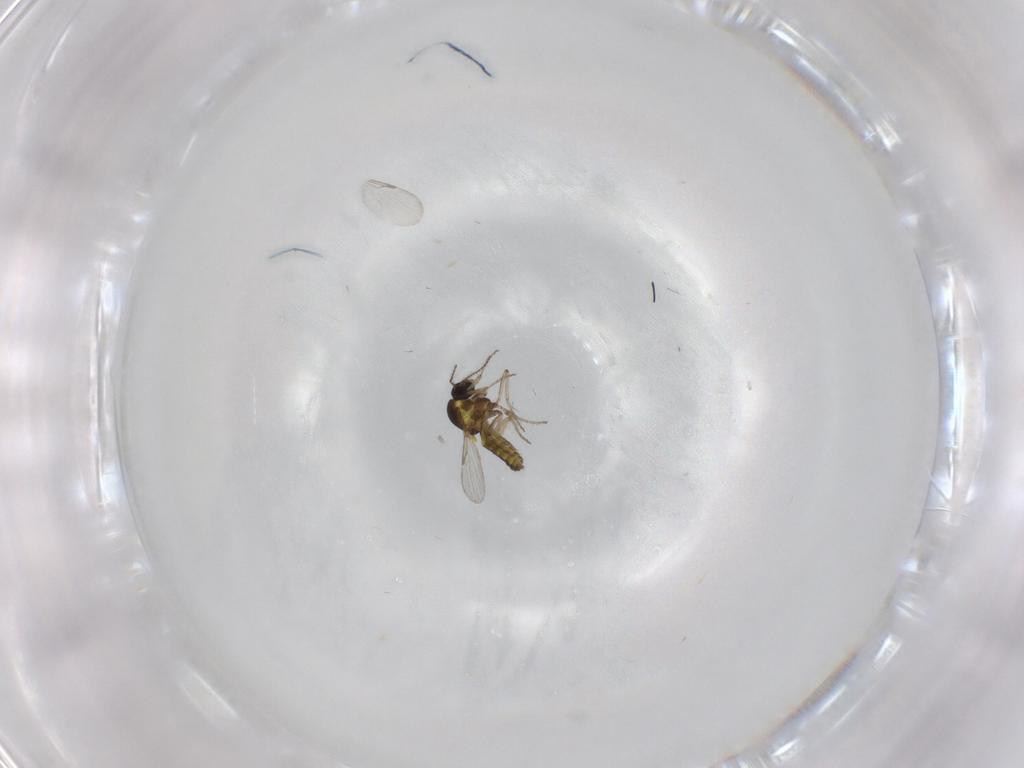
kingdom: Animalia
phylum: Arthropoda
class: Insecta
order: Diptera
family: Ceratopogonidae
